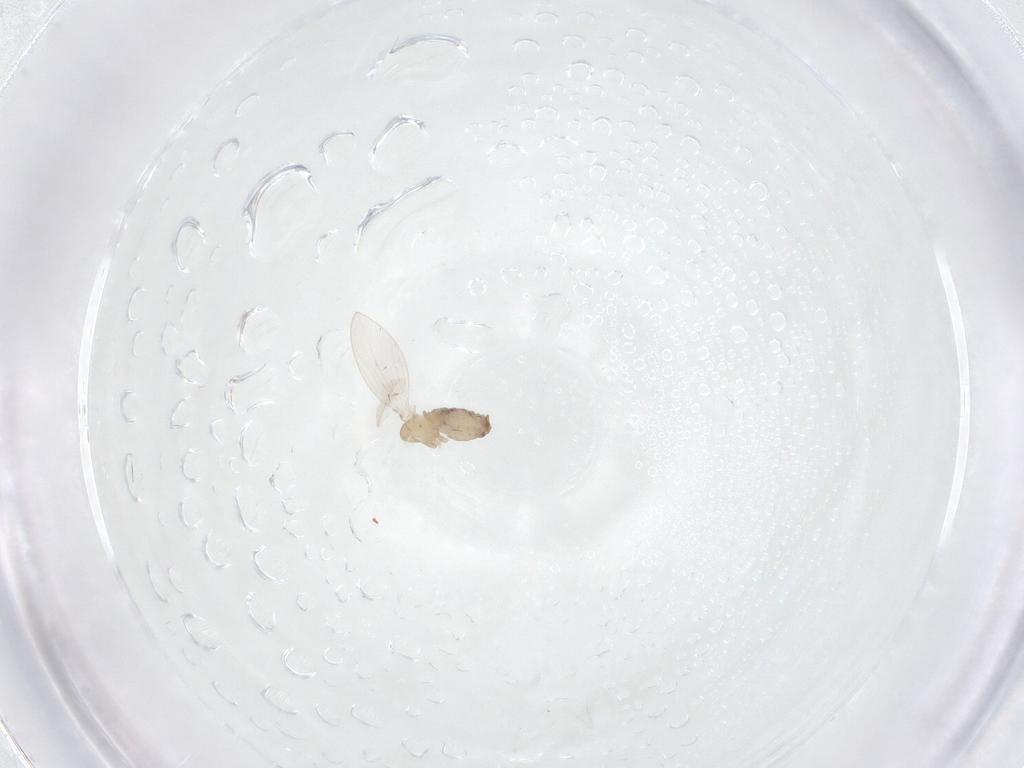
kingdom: Animalia
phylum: Arthropoda
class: Insecta
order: Diptera
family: Psychodidae
